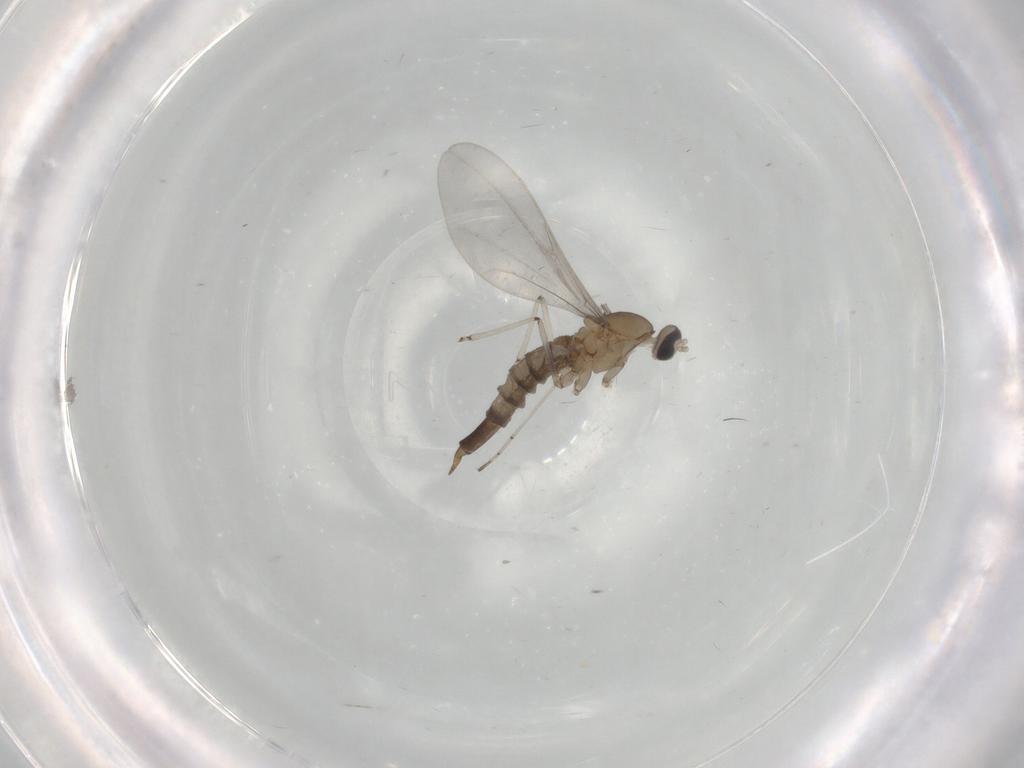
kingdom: Animalia
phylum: Arthropoda
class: Insecta
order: Diptera
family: Cecidomyiidae
